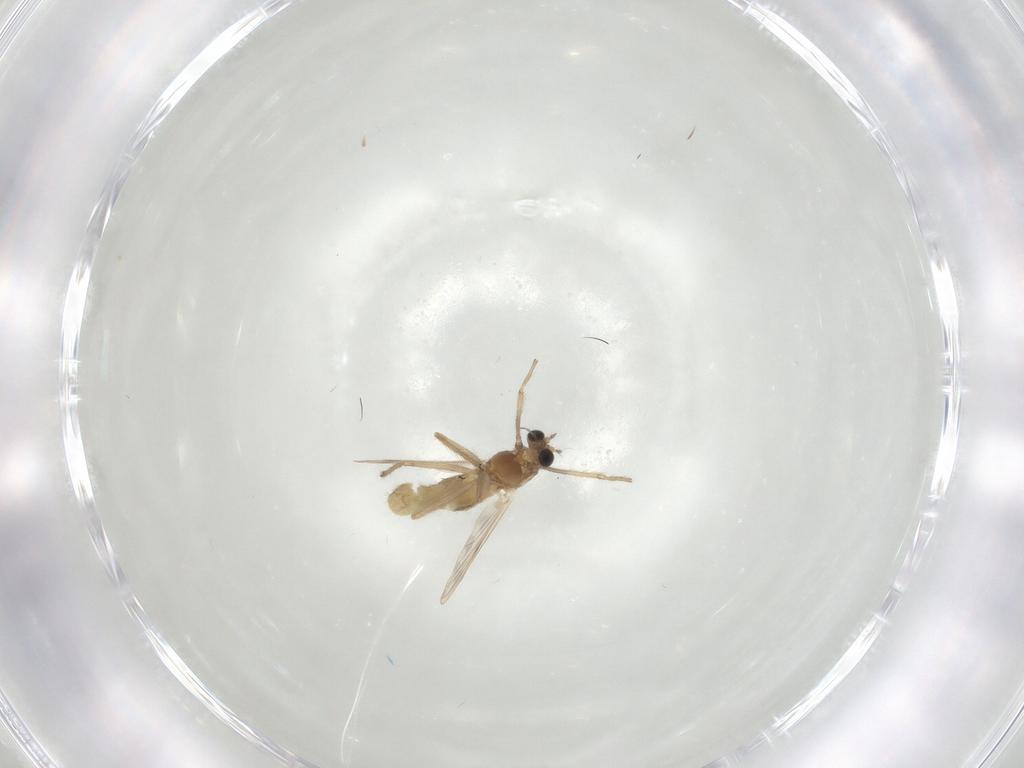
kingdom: Animalia
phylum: Arthropoda
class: Insecta
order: Diptera
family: Chironomidae
